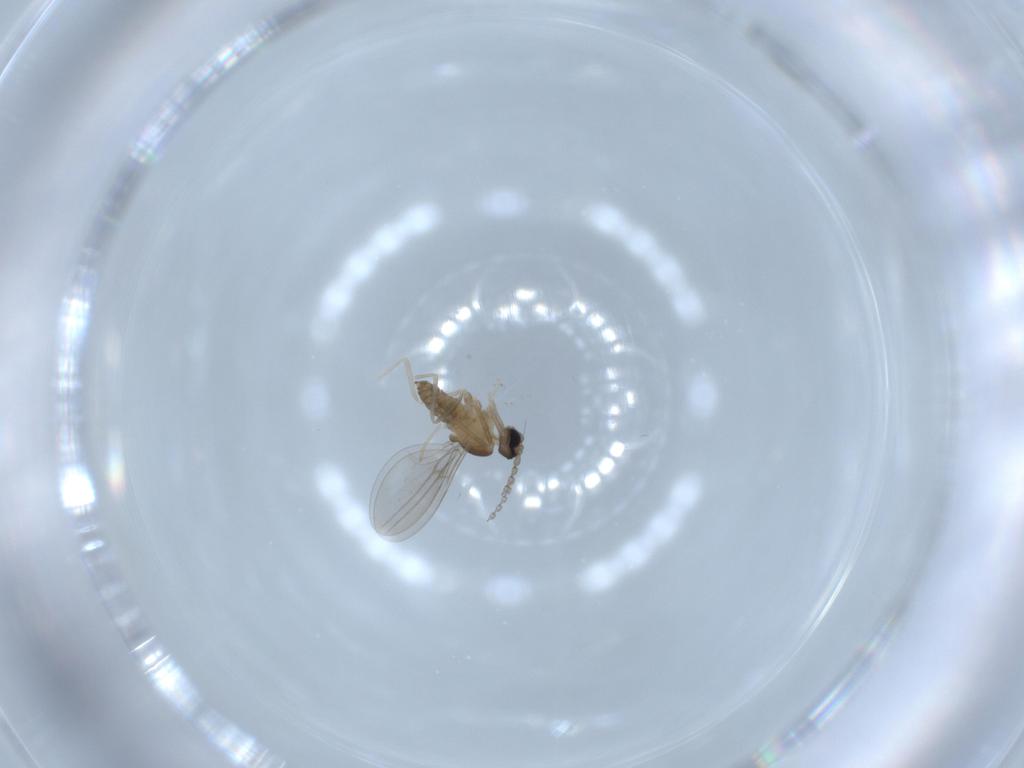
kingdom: Animalia
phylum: Arthropoda
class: Insecta
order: Diptera
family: Cecidomyiidae
